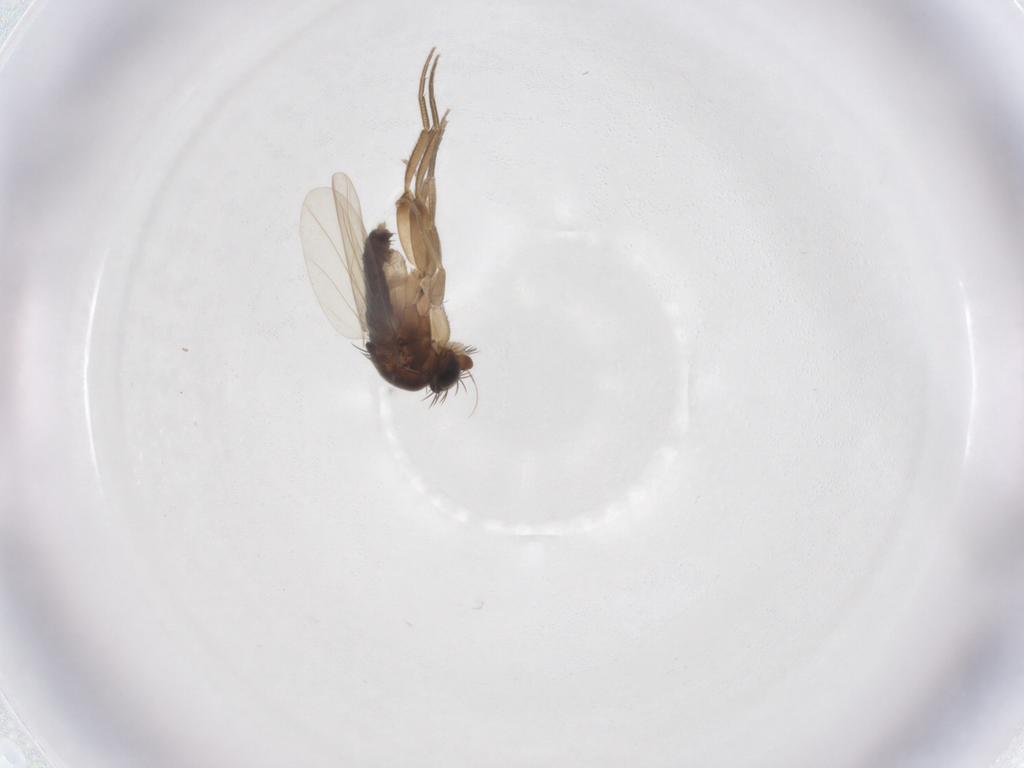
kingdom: Animalia
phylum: Arthropoda
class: Insecta
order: Diptera
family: Phoridae
